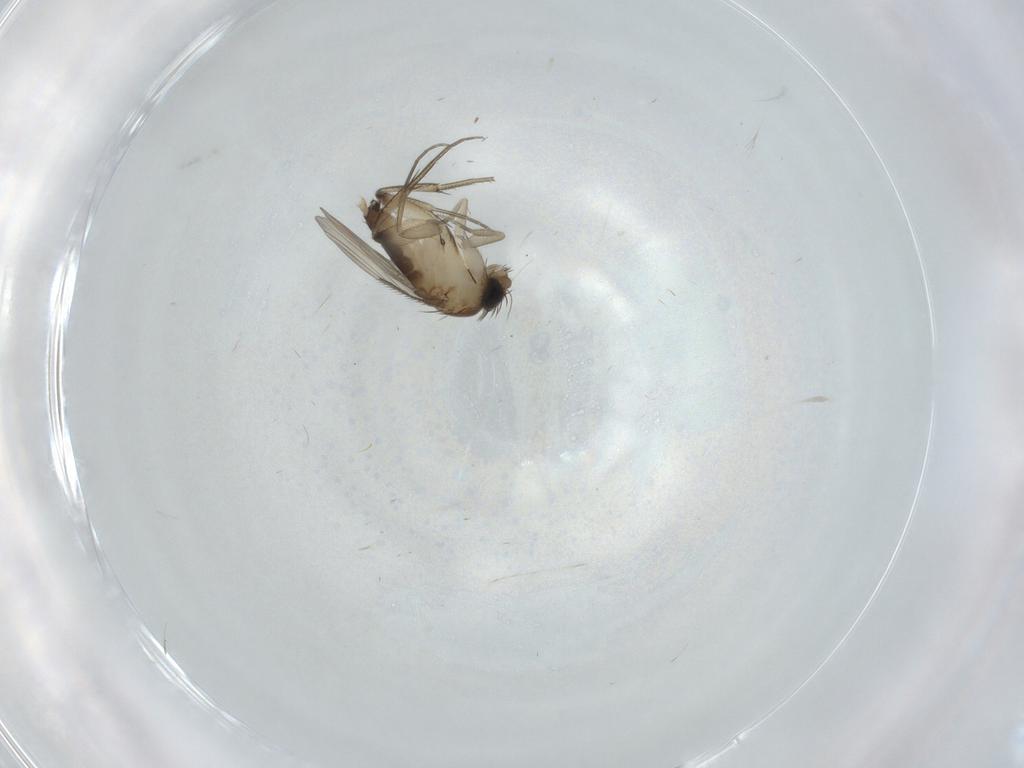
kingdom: Animalia
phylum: Arthropoda
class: Insecta
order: Diptera
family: Phoridae
